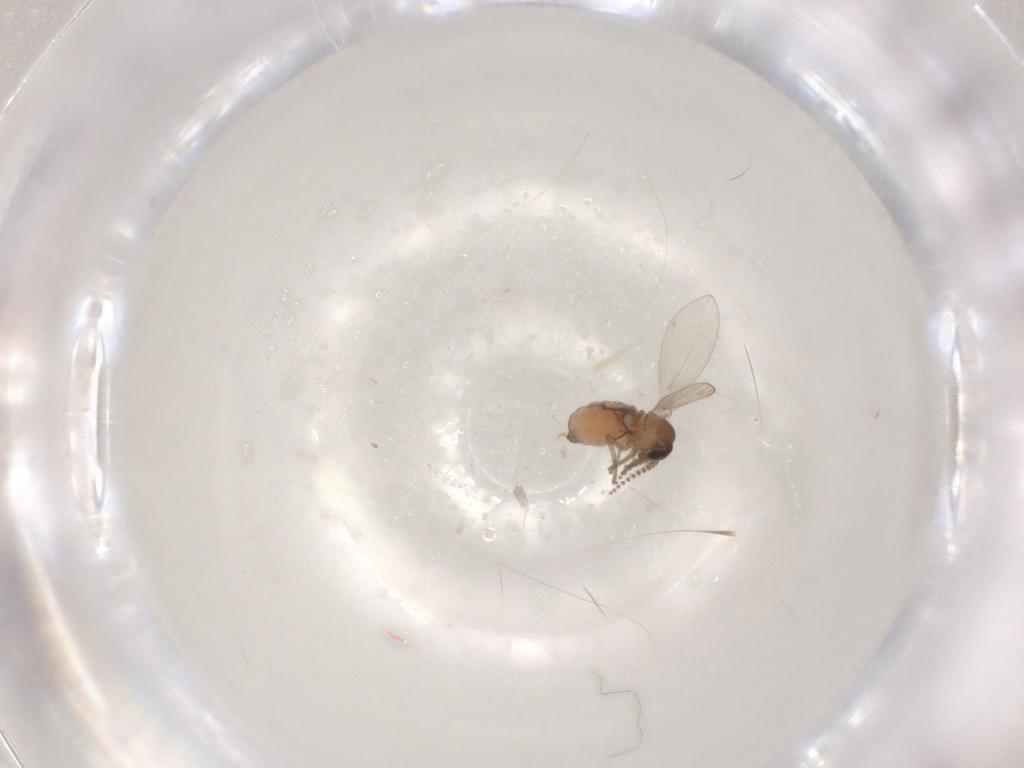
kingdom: Animalia
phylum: Arthropoda
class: Insecta
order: Diptera
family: Psychodidae
